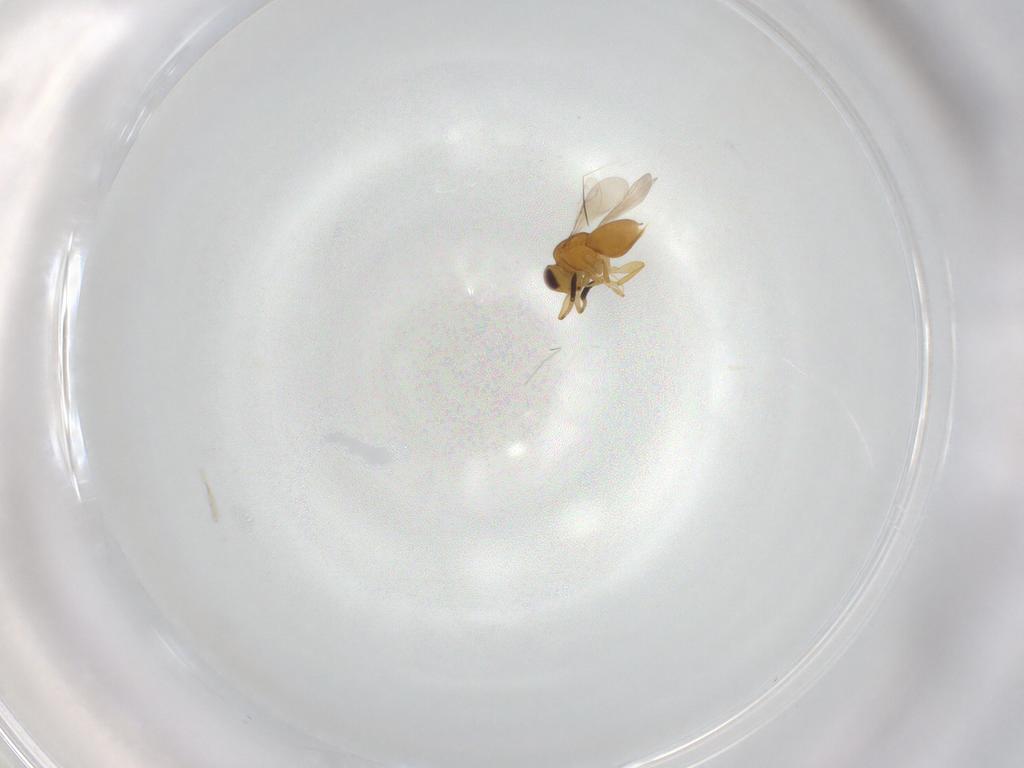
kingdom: Animalia
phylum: Arthropoda
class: Insecta
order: Hymenoptera
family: Ceraphronidae
